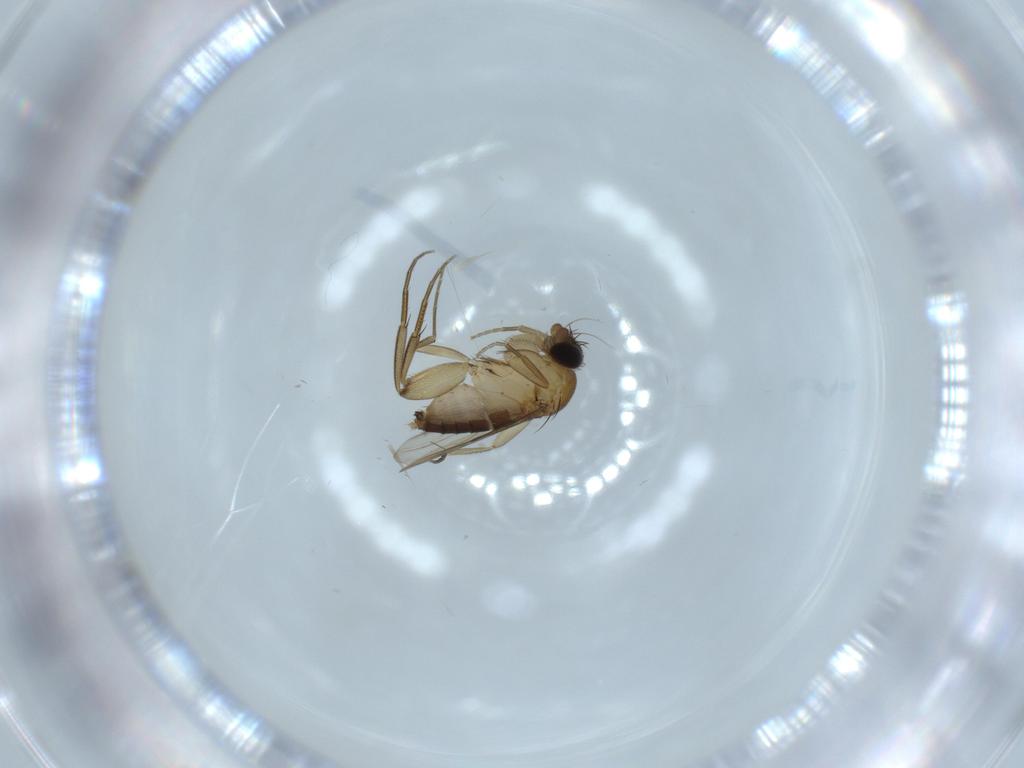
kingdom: Animalia
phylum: Arthropoda
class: Insecta
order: Diptera
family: Phoridae
